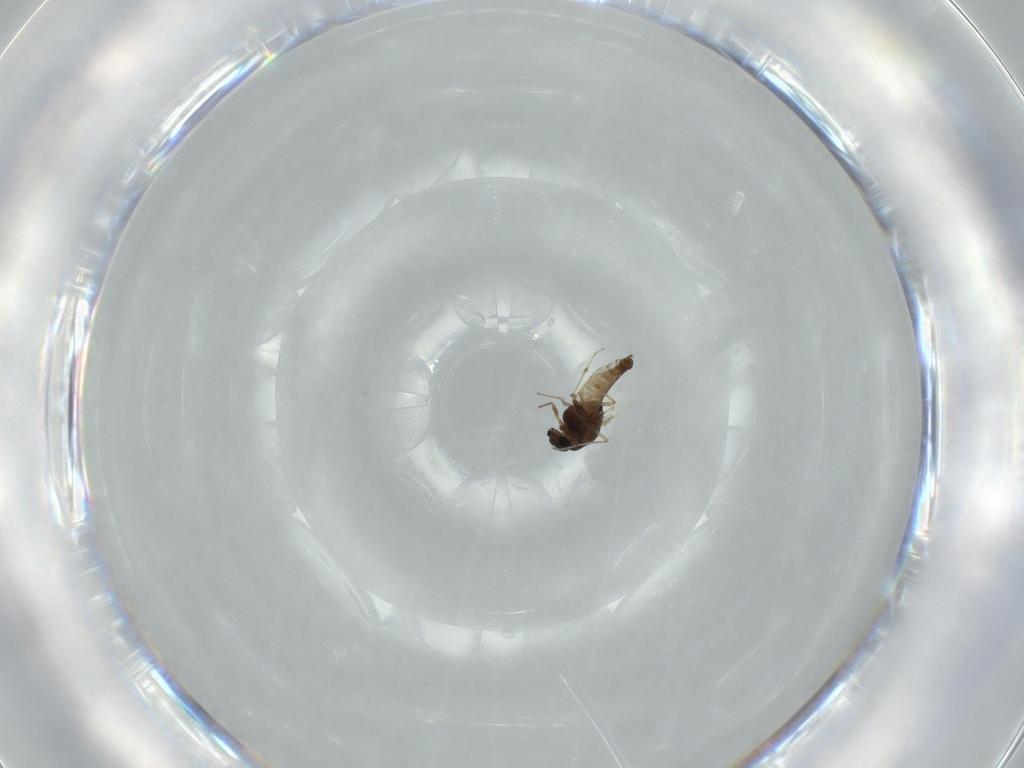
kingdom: Animalia
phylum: Arthropoda
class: Insecta
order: Diptera
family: Chironomidae
